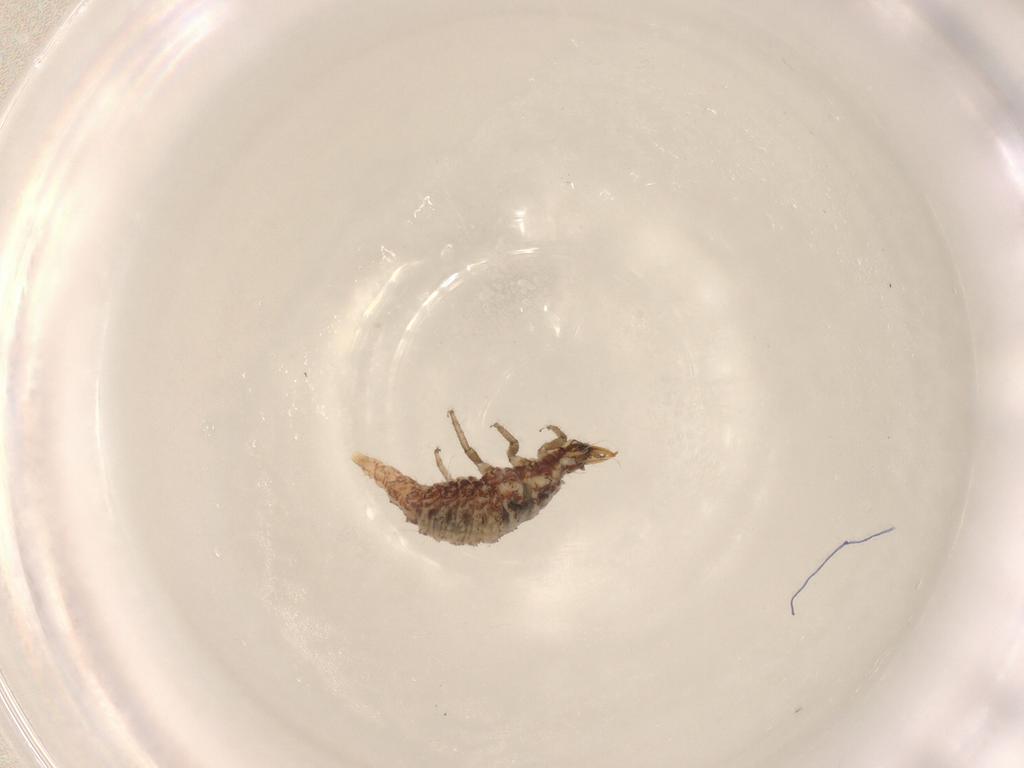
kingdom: Animalia
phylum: Arthropoda
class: Insecta
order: Neuroptera
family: Chrysopidae
